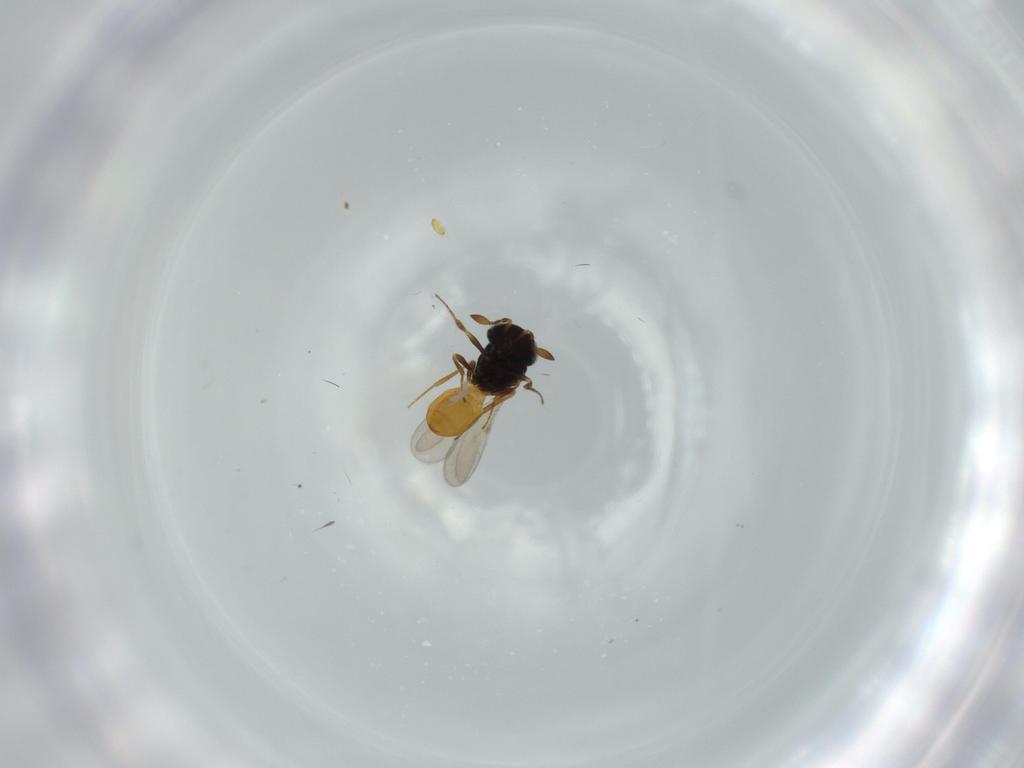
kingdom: Animalia
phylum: Arthropoda
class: Insecta
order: Hymenoptera
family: Scelionidae
